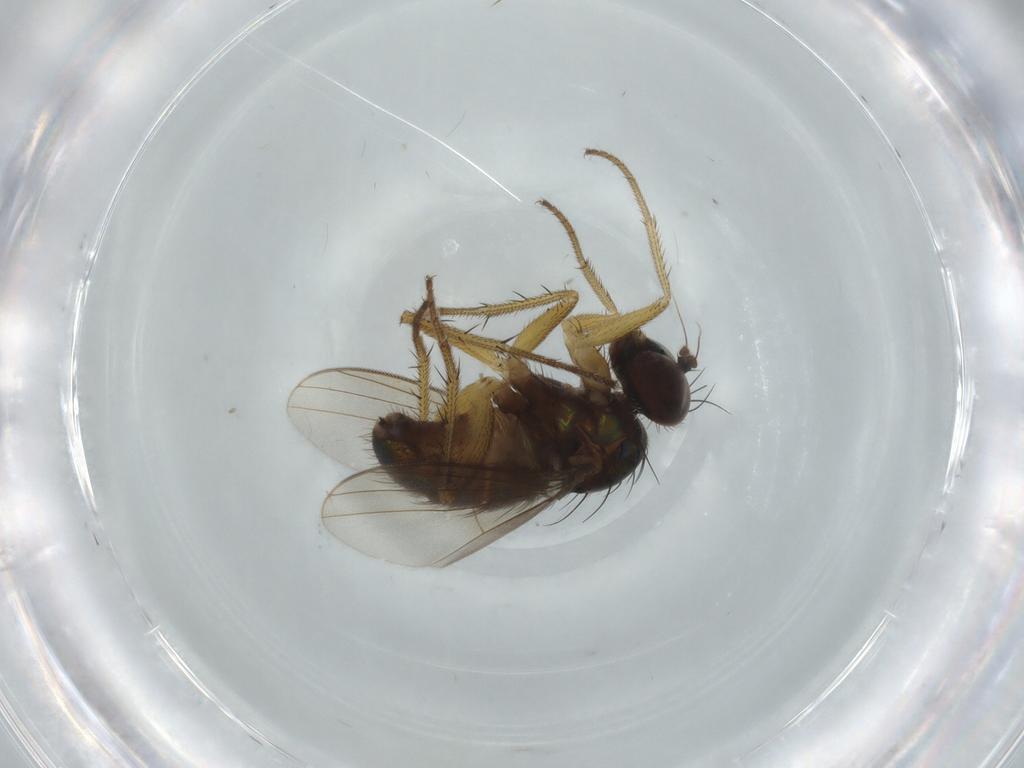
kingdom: Animalia
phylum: Arthropoda
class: Insecta
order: Diptera
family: Dolichopodidae
